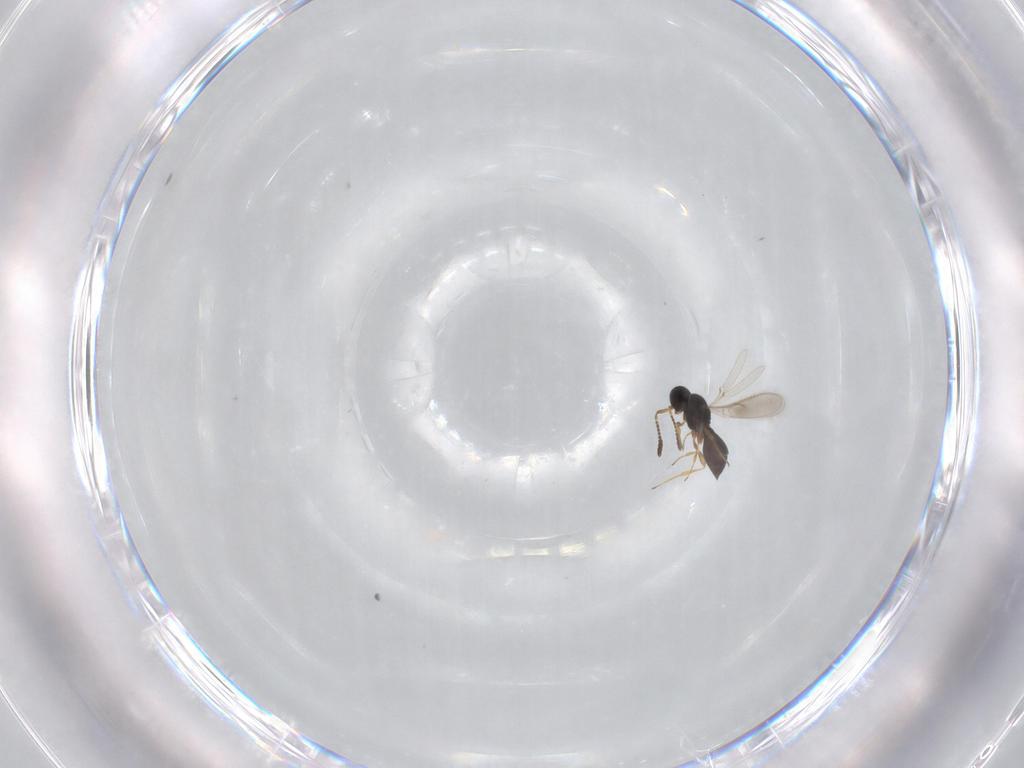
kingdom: Animalia
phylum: Arthropoda
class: Insecta
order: Hymenoptera
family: Scelionidae
